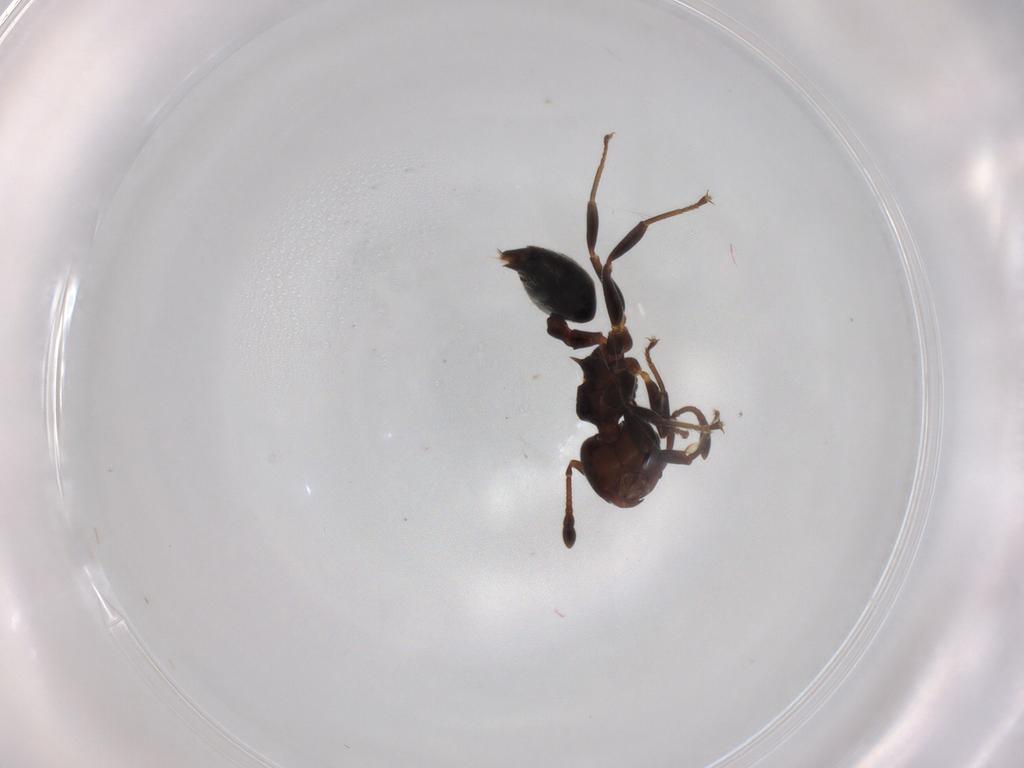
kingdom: Animalia
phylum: Arthropoda
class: Insecta
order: Hymenoptera
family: Formicidae
